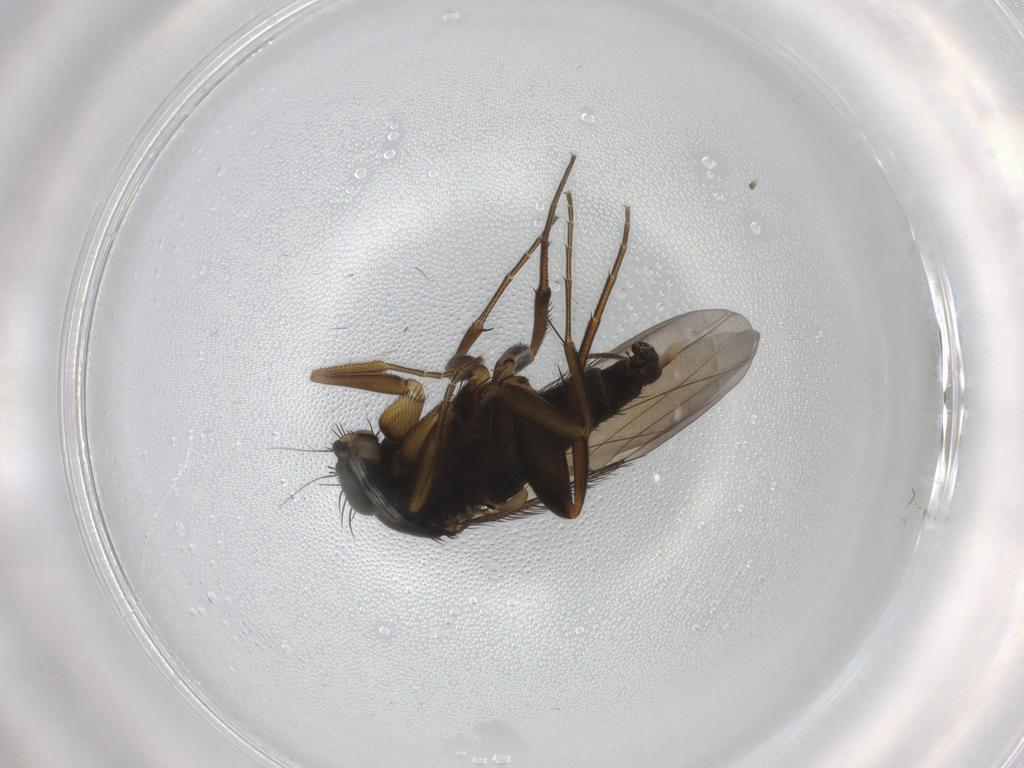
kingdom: Animalia
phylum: Arthropoda
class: Insecta
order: Diptera
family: Phoridae
